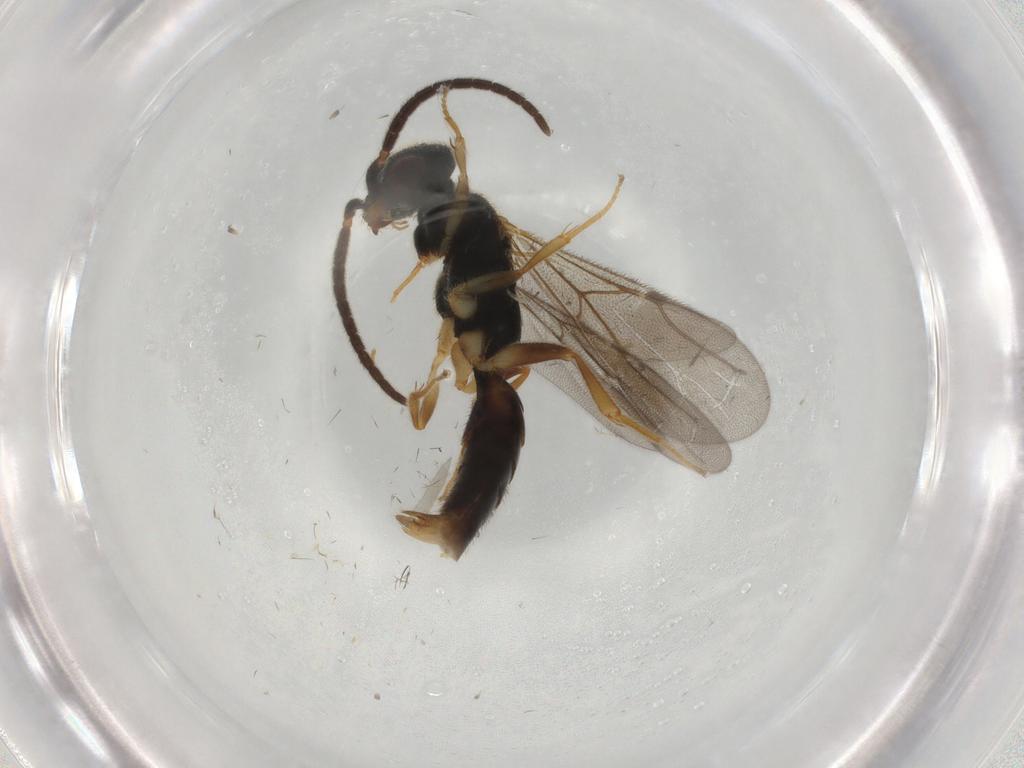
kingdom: Animalia
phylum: Arthropoda
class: Insecta
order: Hymenoptera
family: Bethylidae
